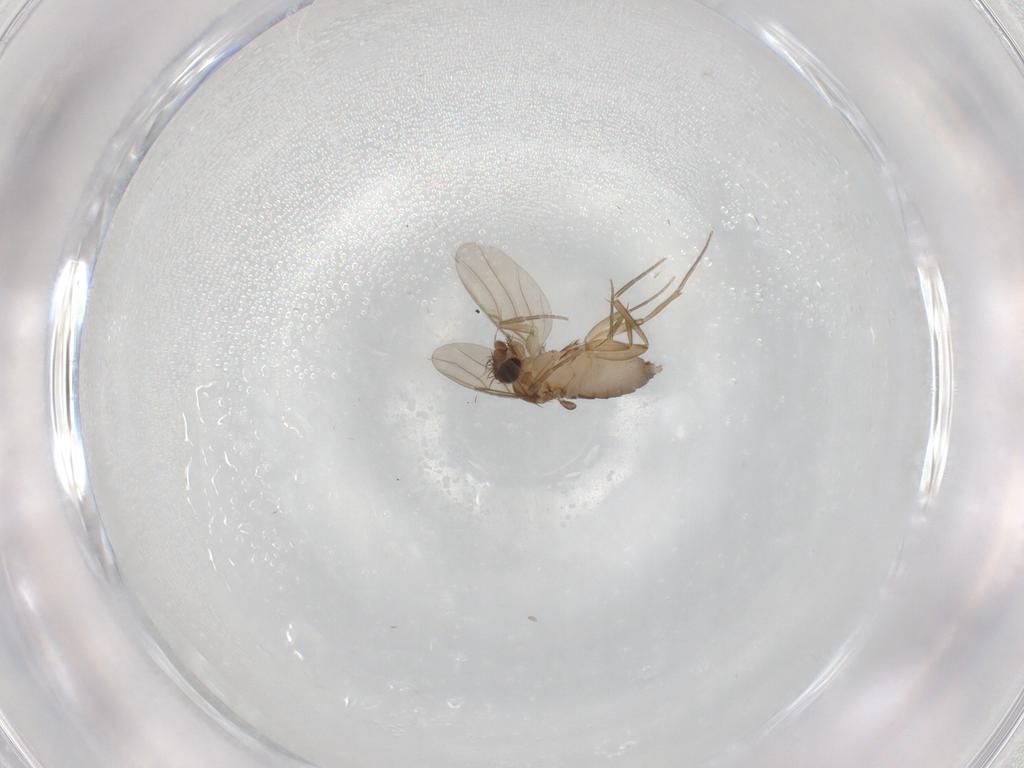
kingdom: Animalia
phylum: Arthropoda
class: Insecta
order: Diptera
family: Phoridae
